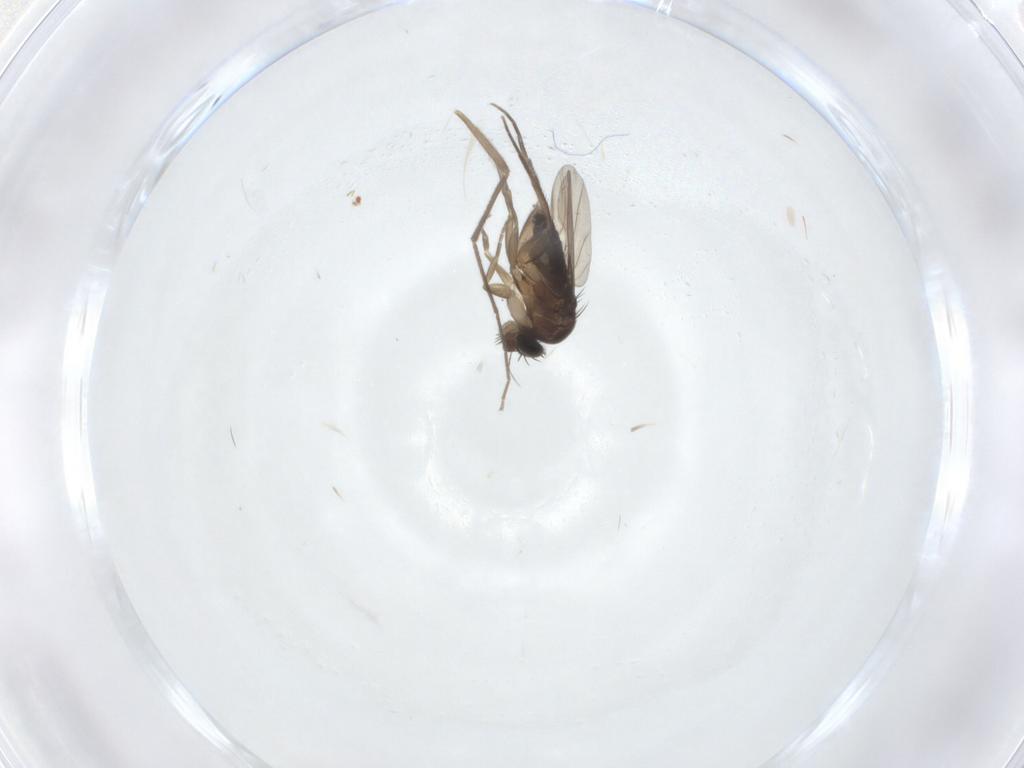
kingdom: Animalia
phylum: Arthropoda
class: Insecta
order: Diptera
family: Phoridae
